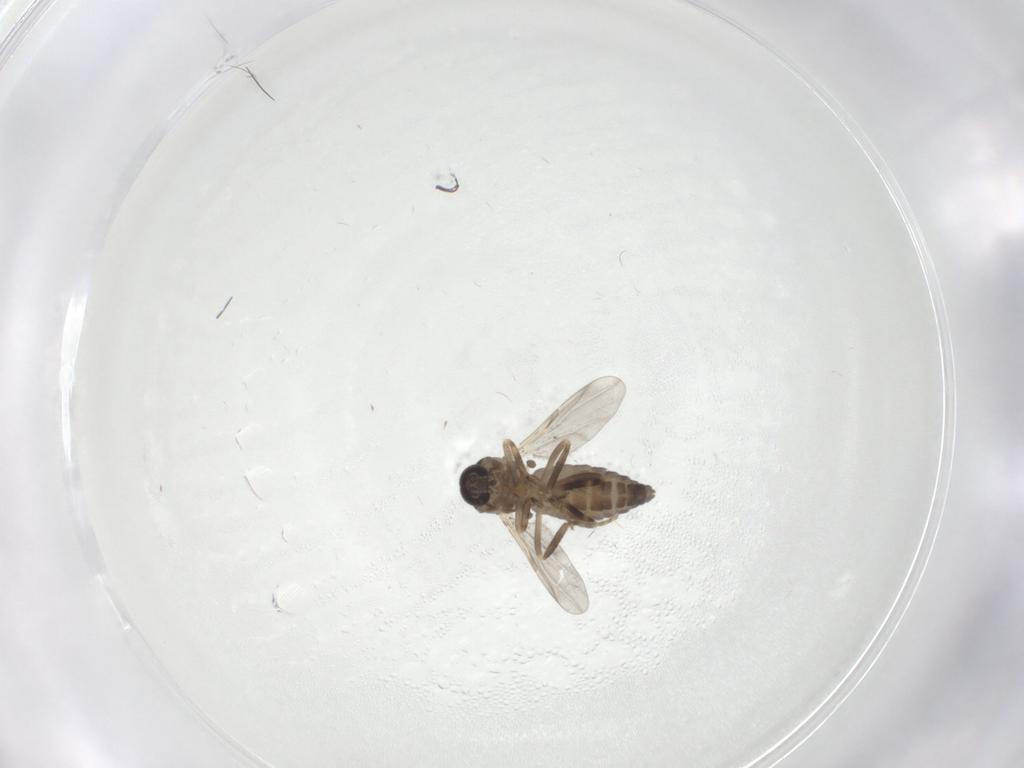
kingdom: Animalia
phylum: Arthropoda
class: Insecta
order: Diptera
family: Ceratopogonidae
